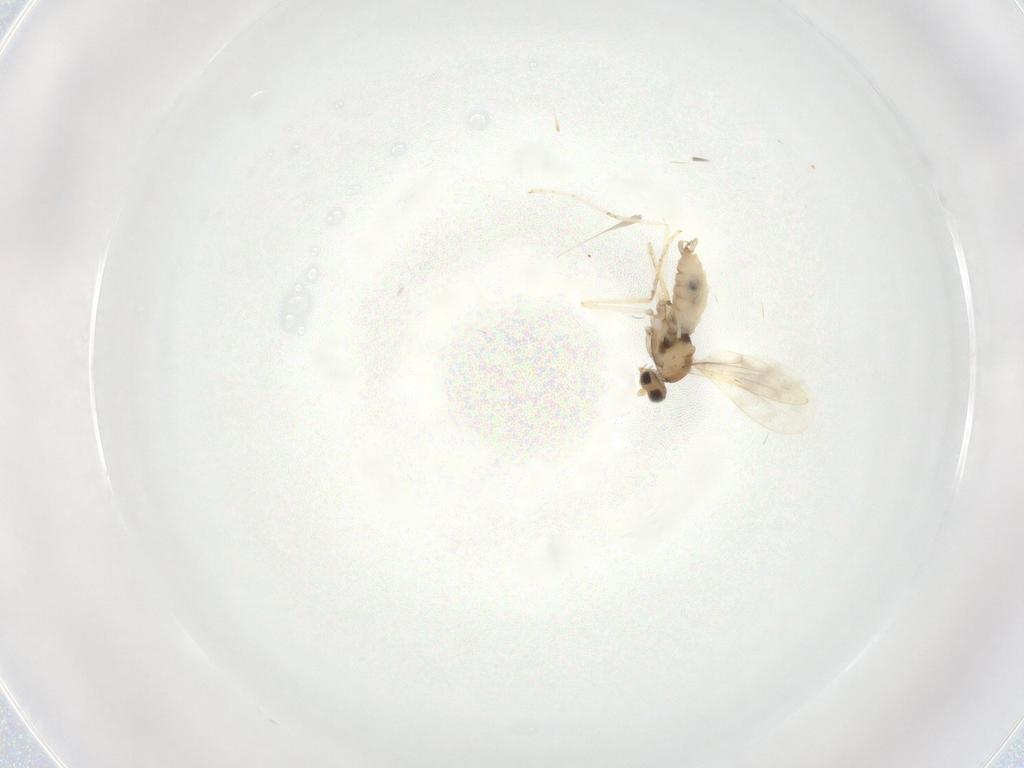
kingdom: Animalia
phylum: Arthropoda
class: Insecta
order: Diptera
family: Cecidomyiidae
